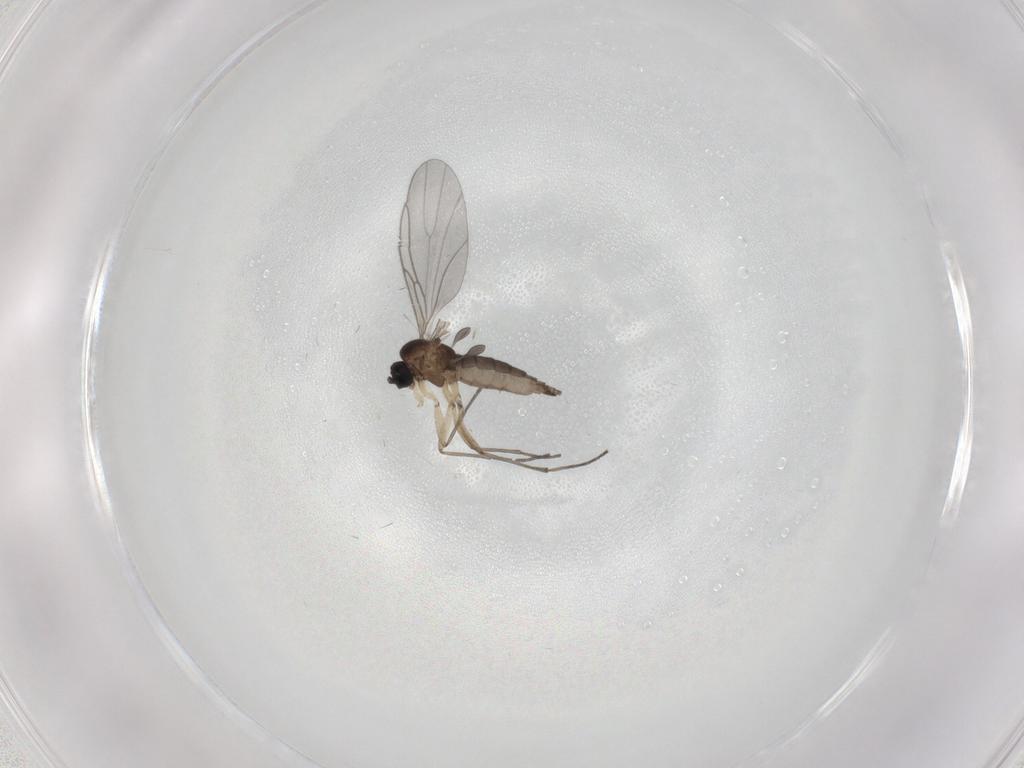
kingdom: Animalia
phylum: Arthropoda
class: Insecta
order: Diptera
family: Sciaridae
